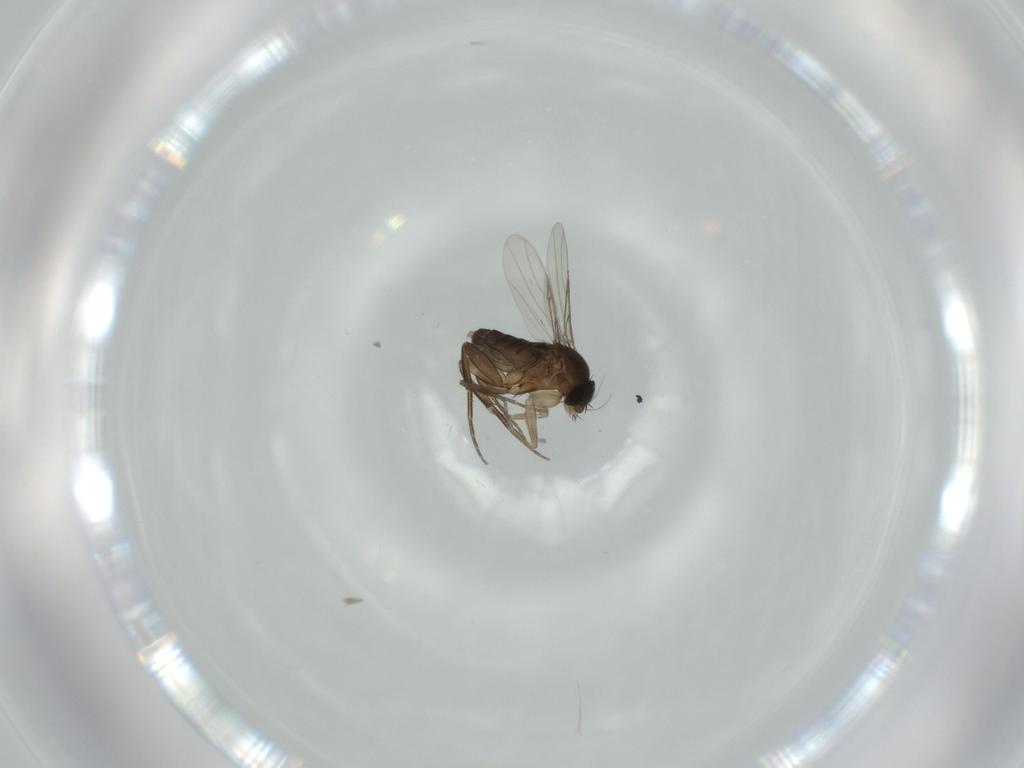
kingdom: Animalia
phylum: Arthropoda
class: Insecta
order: Diptera
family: Phoridae
